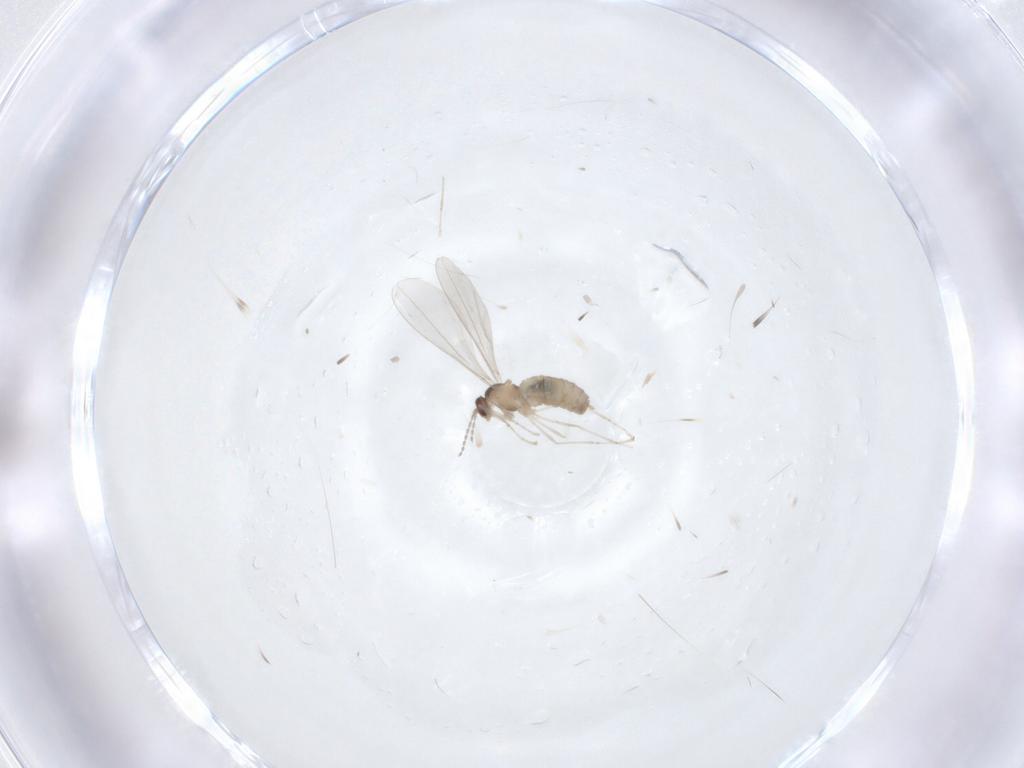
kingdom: Animalia
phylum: Arthropoda
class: Insecta
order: Diptera
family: Cecidomyiidae
